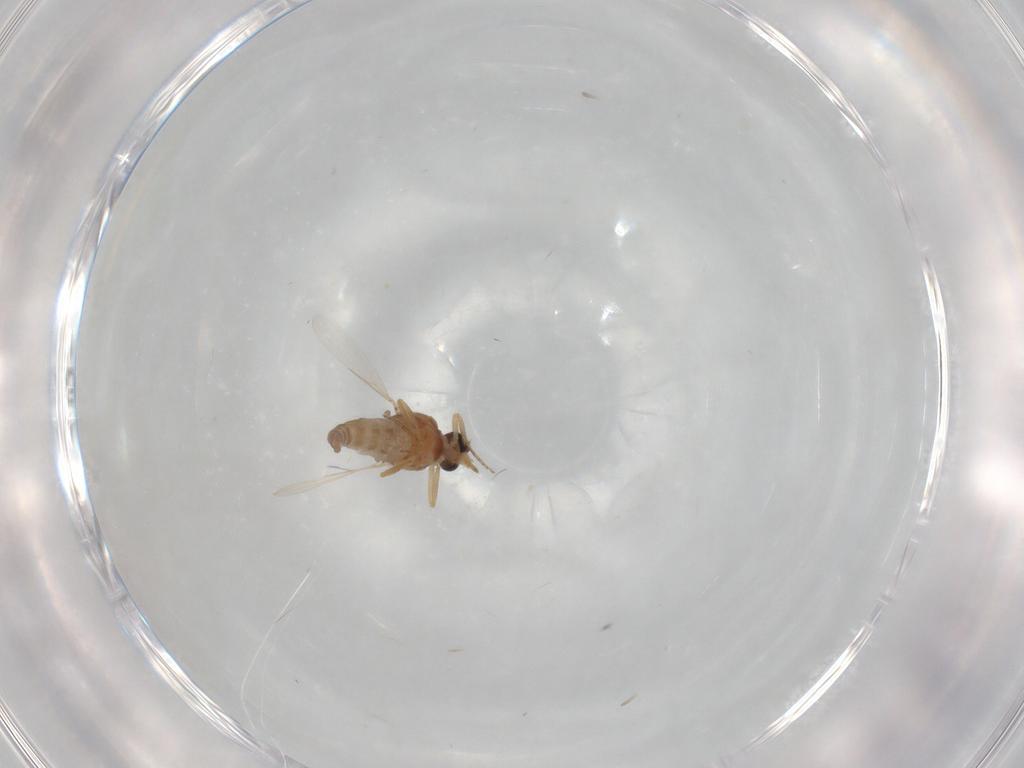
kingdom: Animalia
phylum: Arthropoda
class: Insecta
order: Diptera
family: Ceratopogonidae
